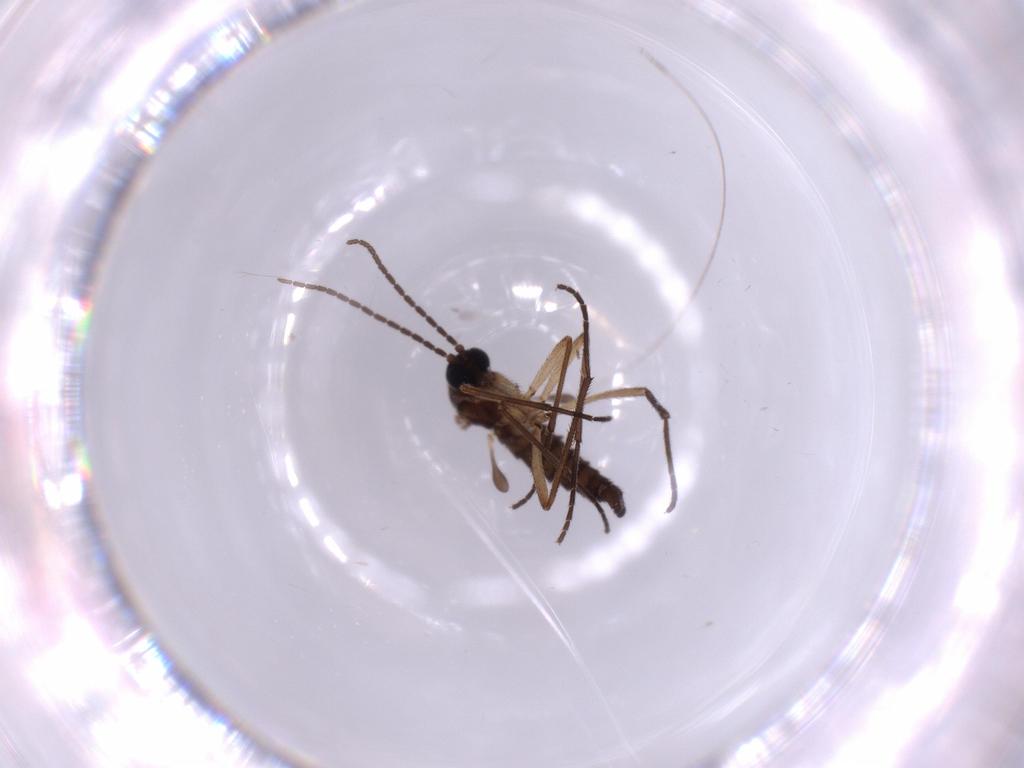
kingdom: Animalia
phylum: Arthropoda
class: Insecta
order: Diptera
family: Sciaridae
